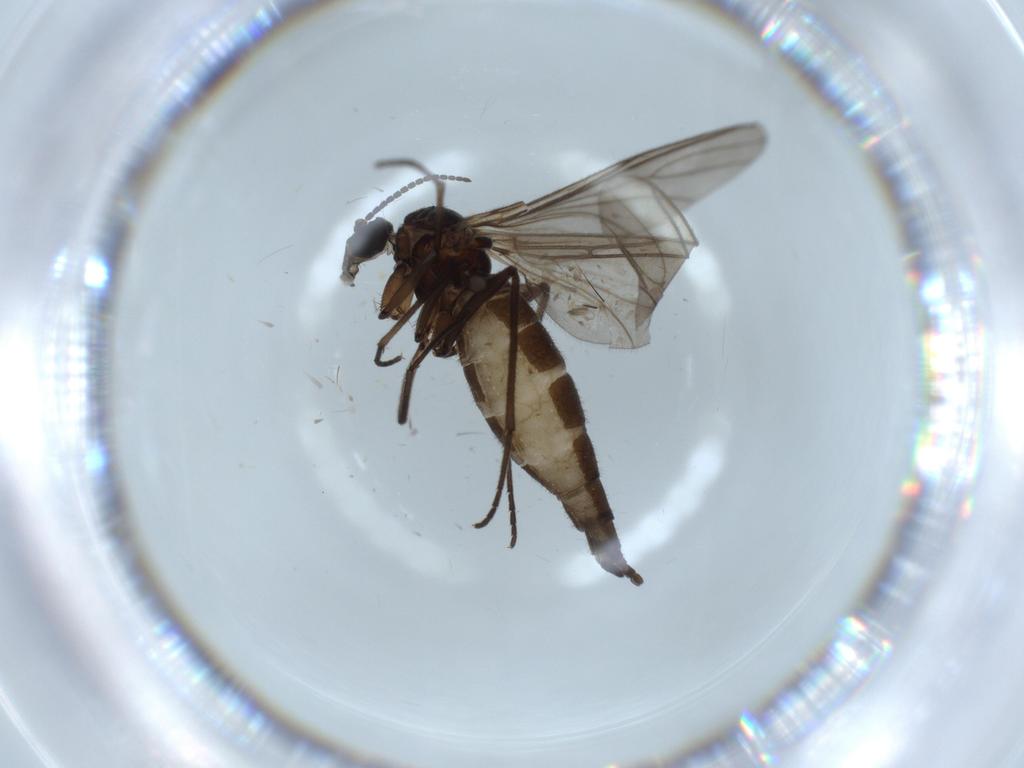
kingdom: Animalia
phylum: Arthropoda
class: Insecta
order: Diptera
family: Sciaridae
